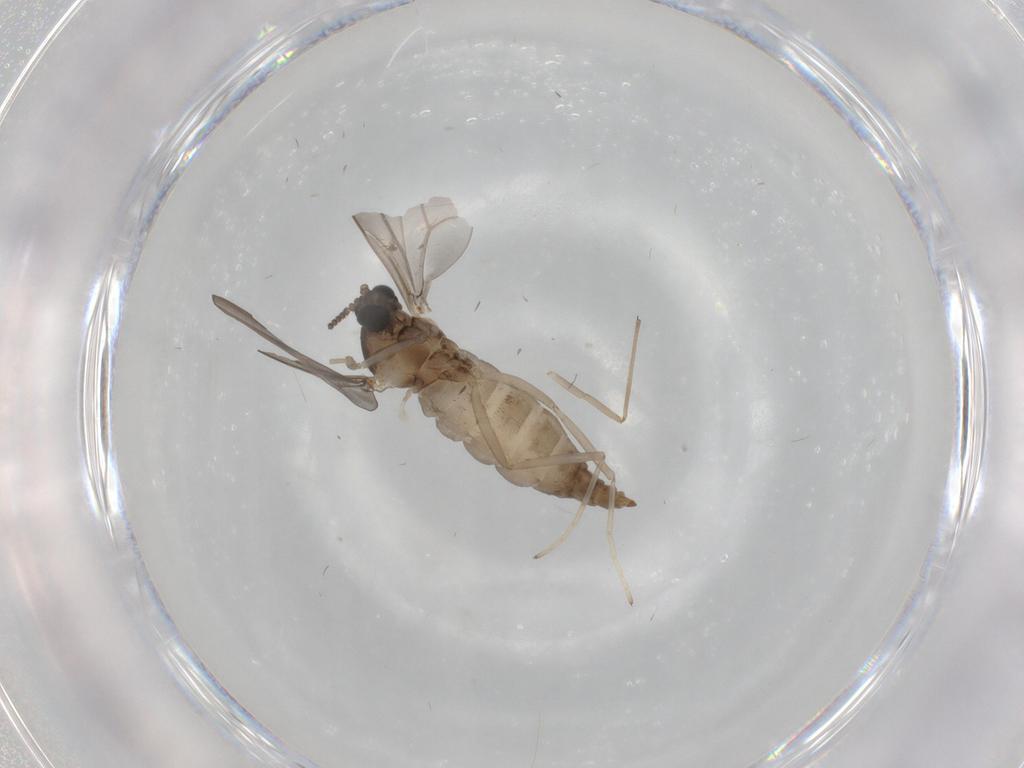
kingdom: Animalia
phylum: Arthropoda
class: Insecta
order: Diptera
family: Cecidomyiidae
